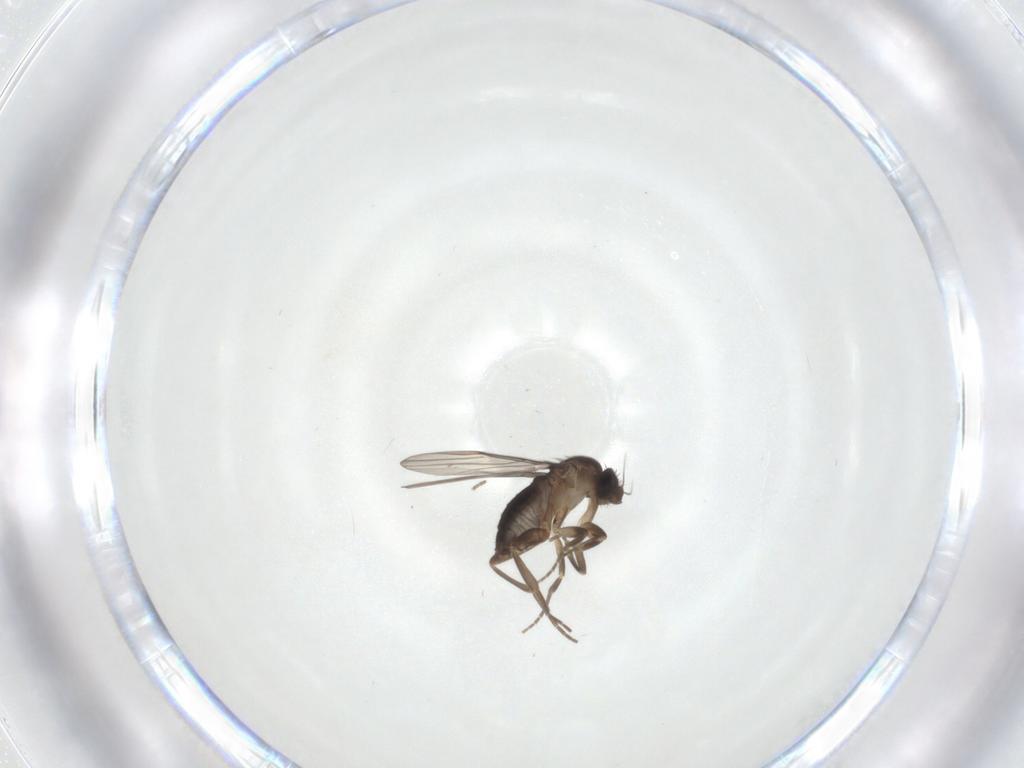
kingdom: Animalia
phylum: Arthropoda
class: Insecta
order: Diptera
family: Phoridae
